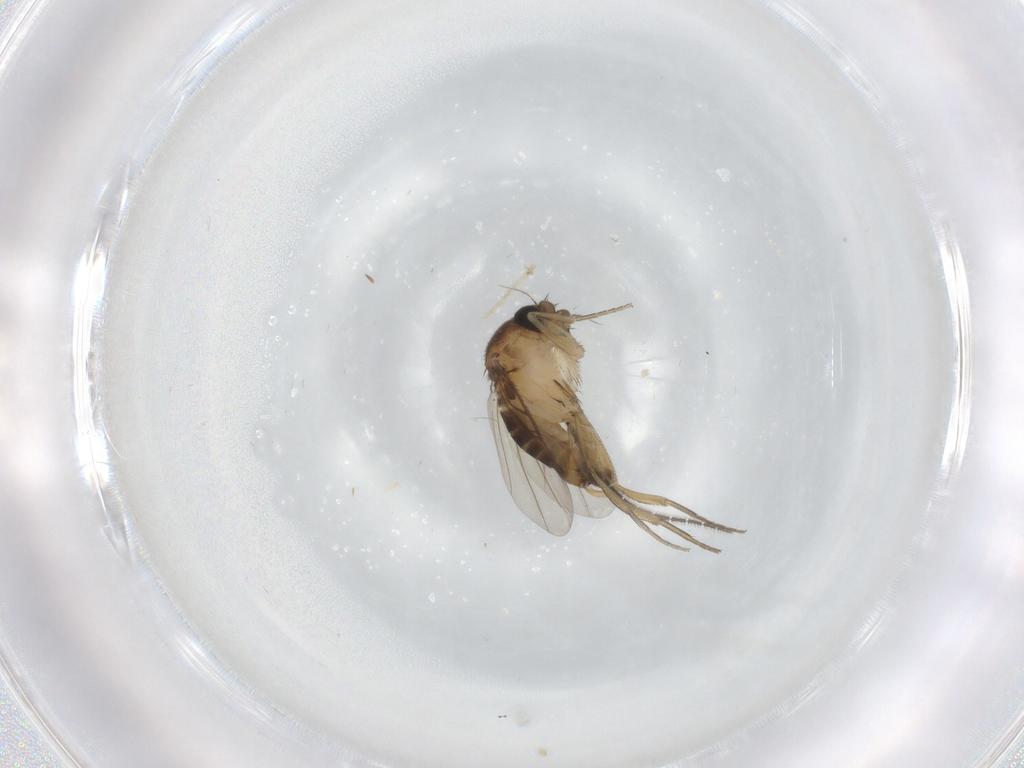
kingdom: Animalia
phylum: Arthropoda
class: Insecta
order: Diptera
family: Phoridae
